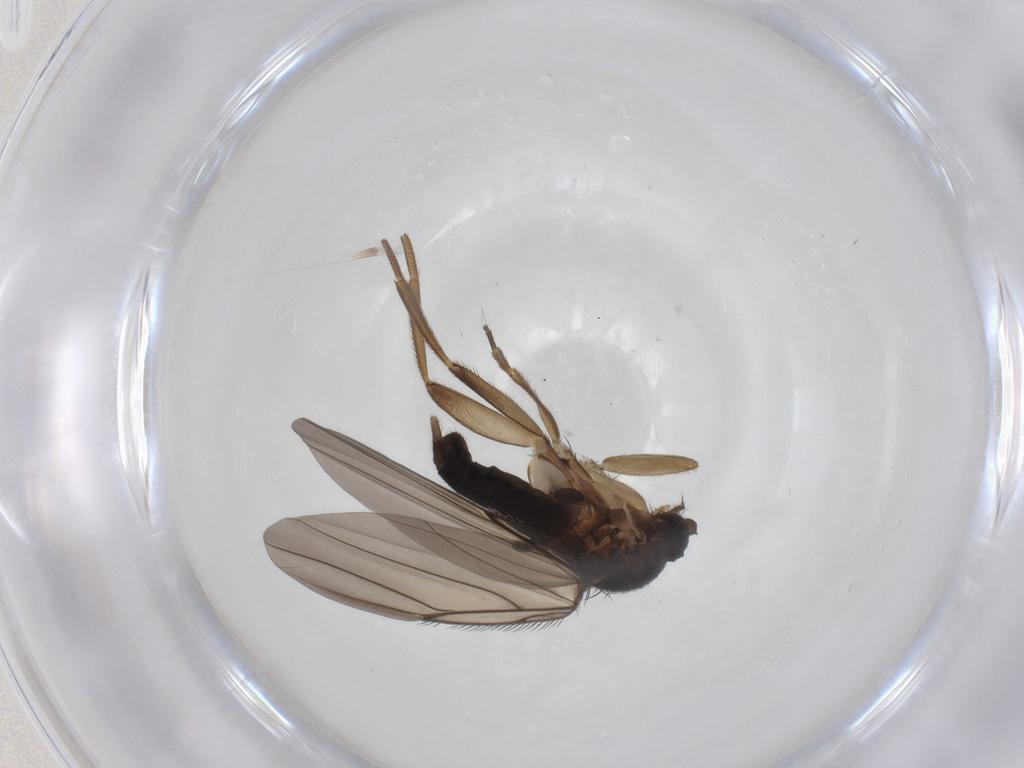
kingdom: Animalia
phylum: Arthropoda
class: Insecta
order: Diptera
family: Phoridae
